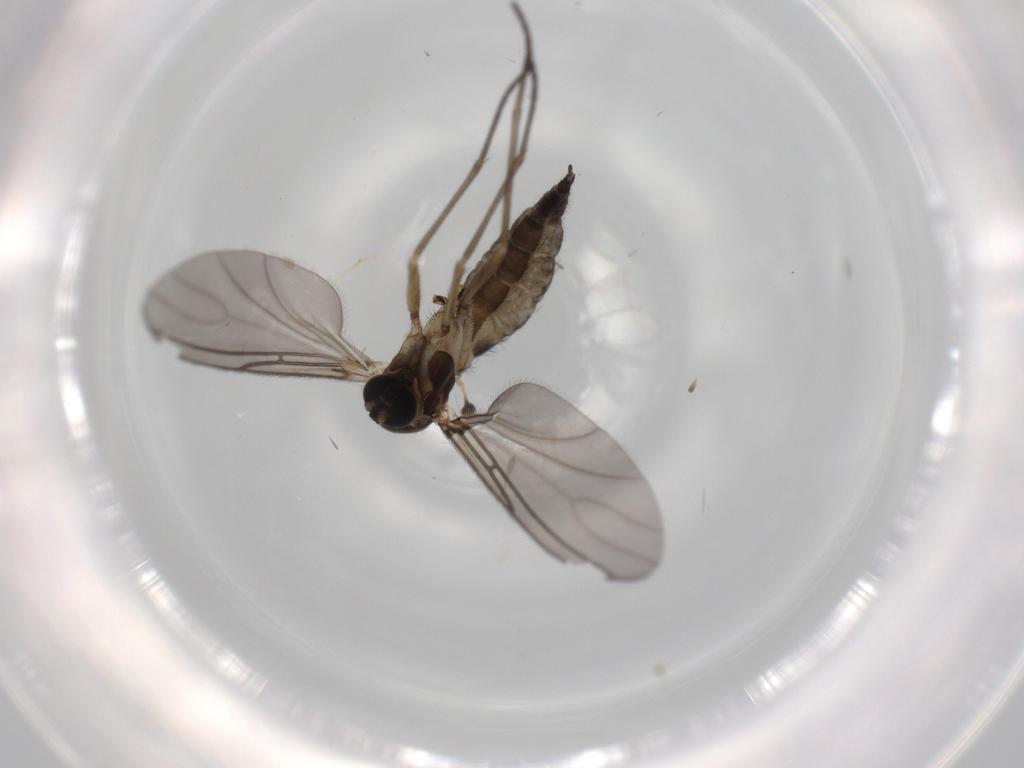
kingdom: Animalia
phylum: Arthropoda
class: Insecta
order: Diptera
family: Sciaridae
